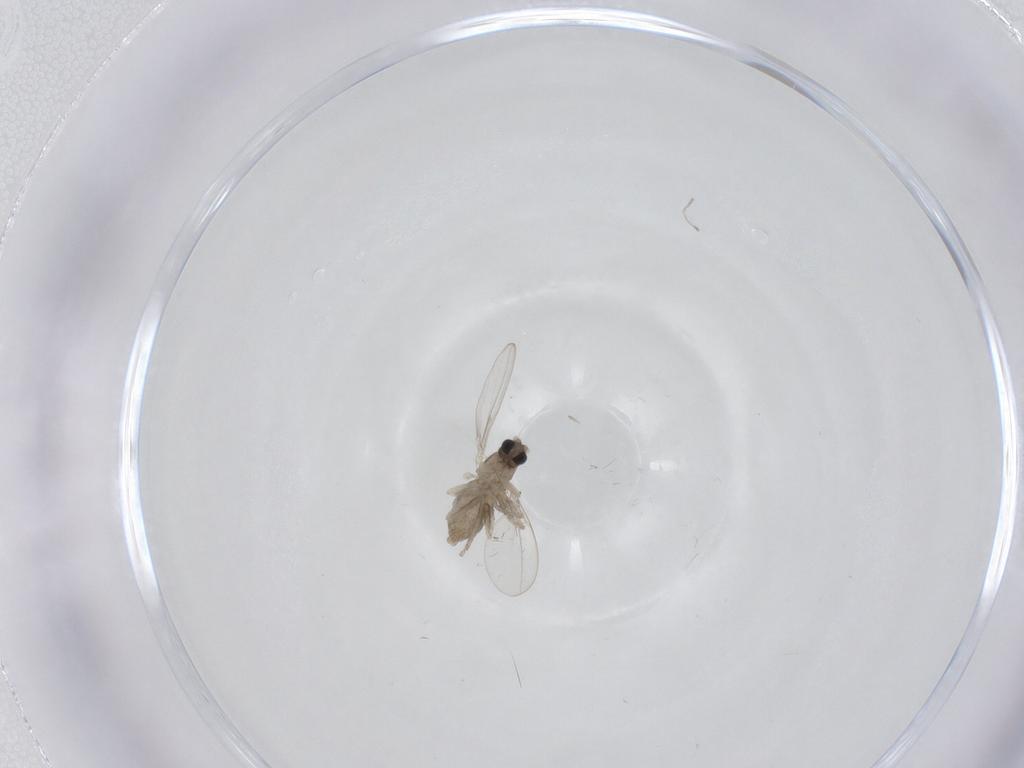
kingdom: Animalia
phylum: Arthropoda
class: Insecta
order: Diptera
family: Cecidomyiidae
